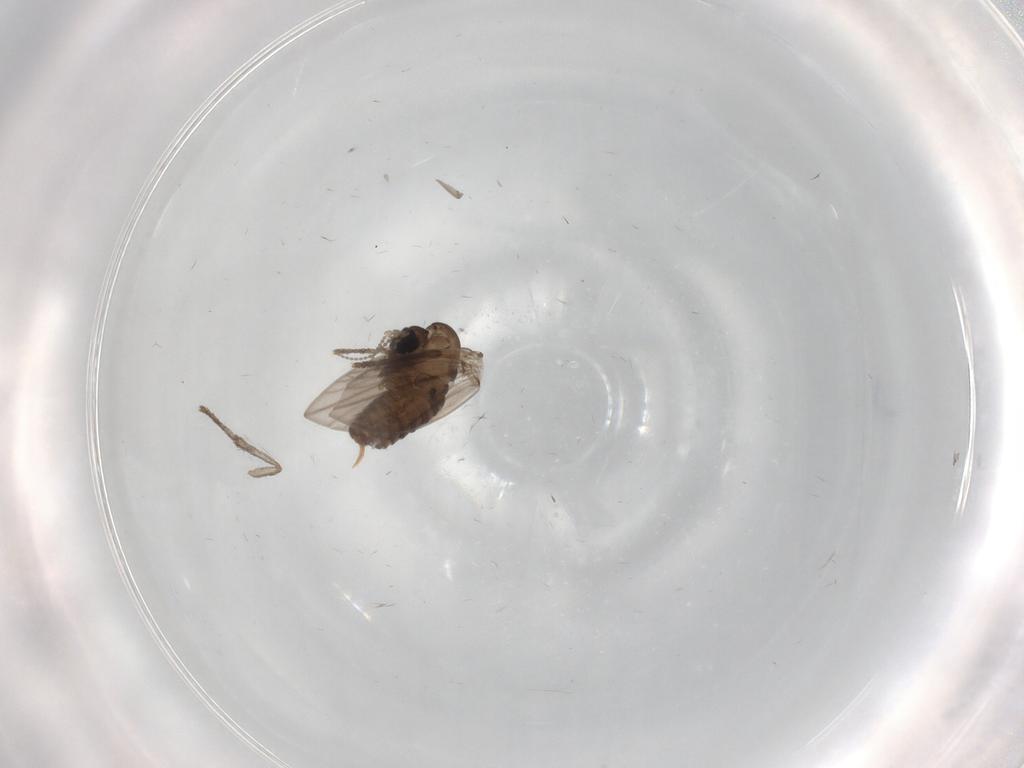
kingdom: Animalia
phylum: Arthropoda
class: Insecta
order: Diptera
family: Psychodidae
